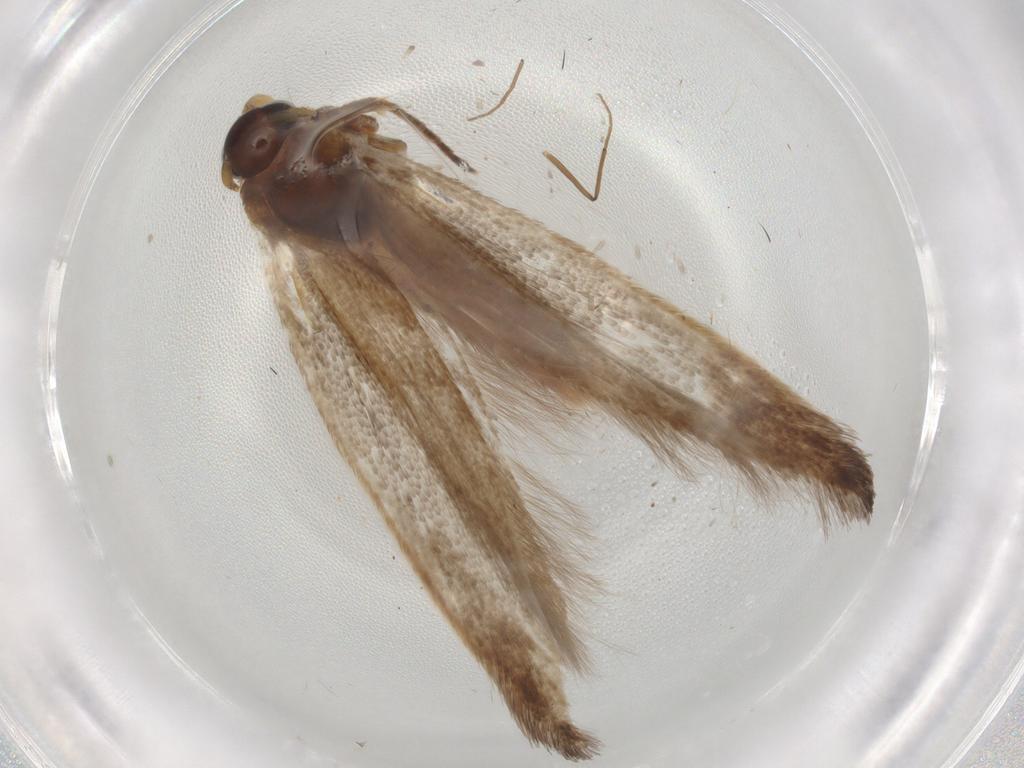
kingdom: Animalia
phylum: Arthropoda
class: Insecta
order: Lepidoptera
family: Scythrididae
